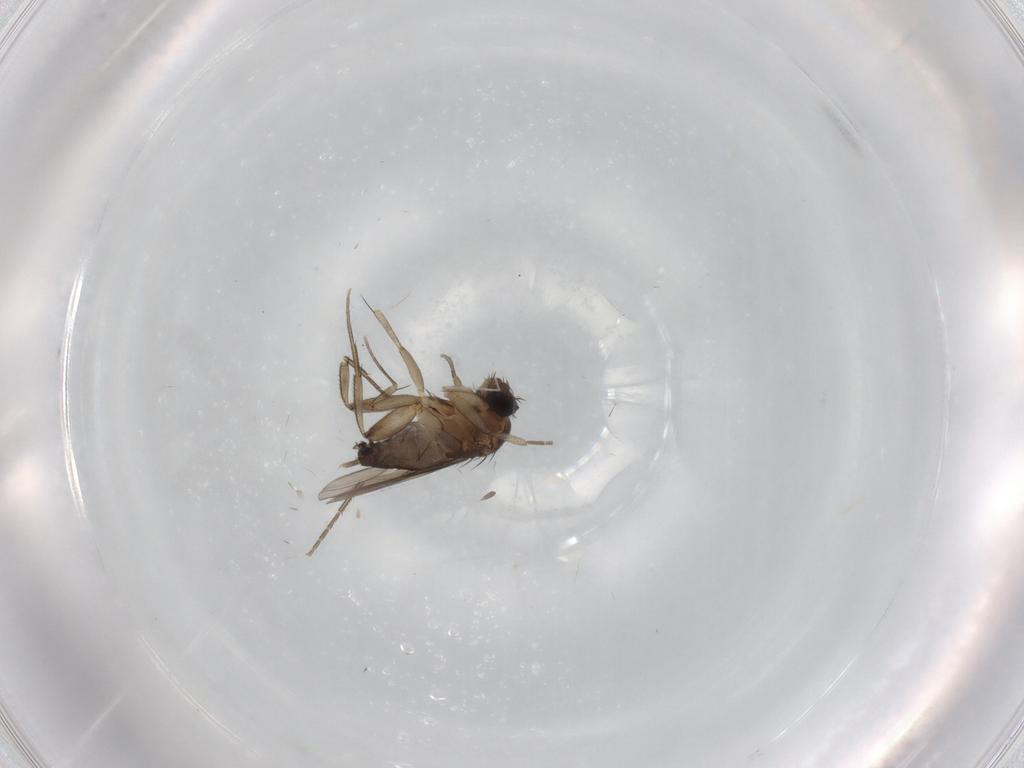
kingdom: Animalia
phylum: Arthropoda
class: Insecta
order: Diptera
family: Phoridae
